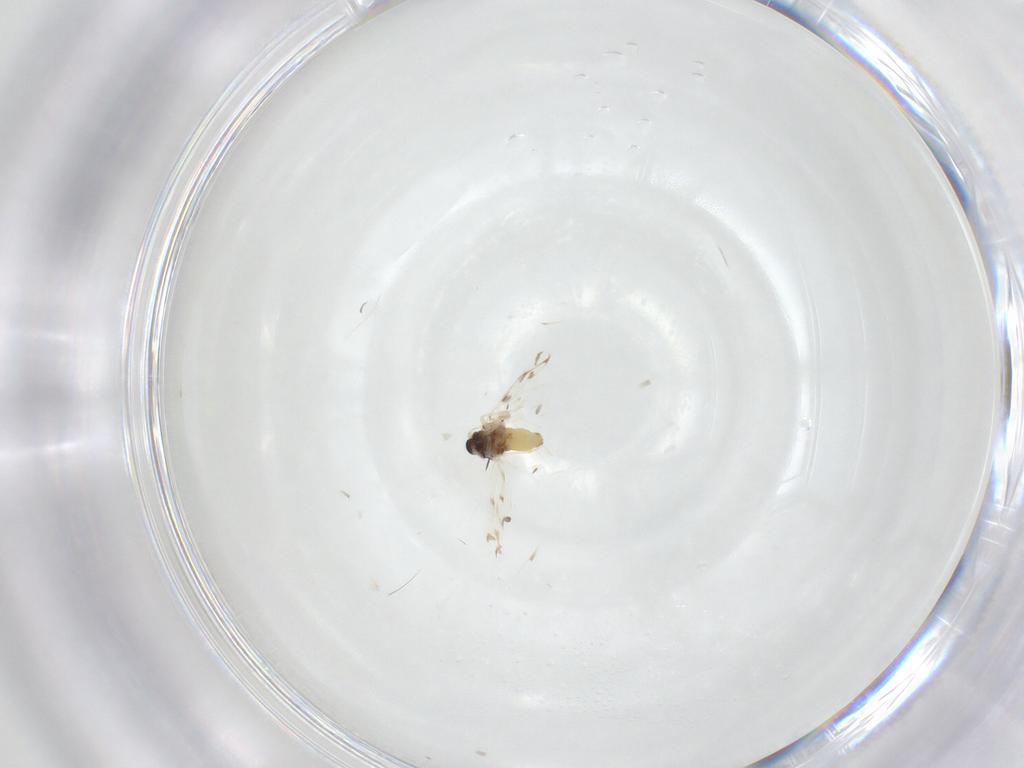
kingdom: Animalia
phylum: Arthropoda
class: Insecta
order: Hemiptera
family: Aleyrodidae
